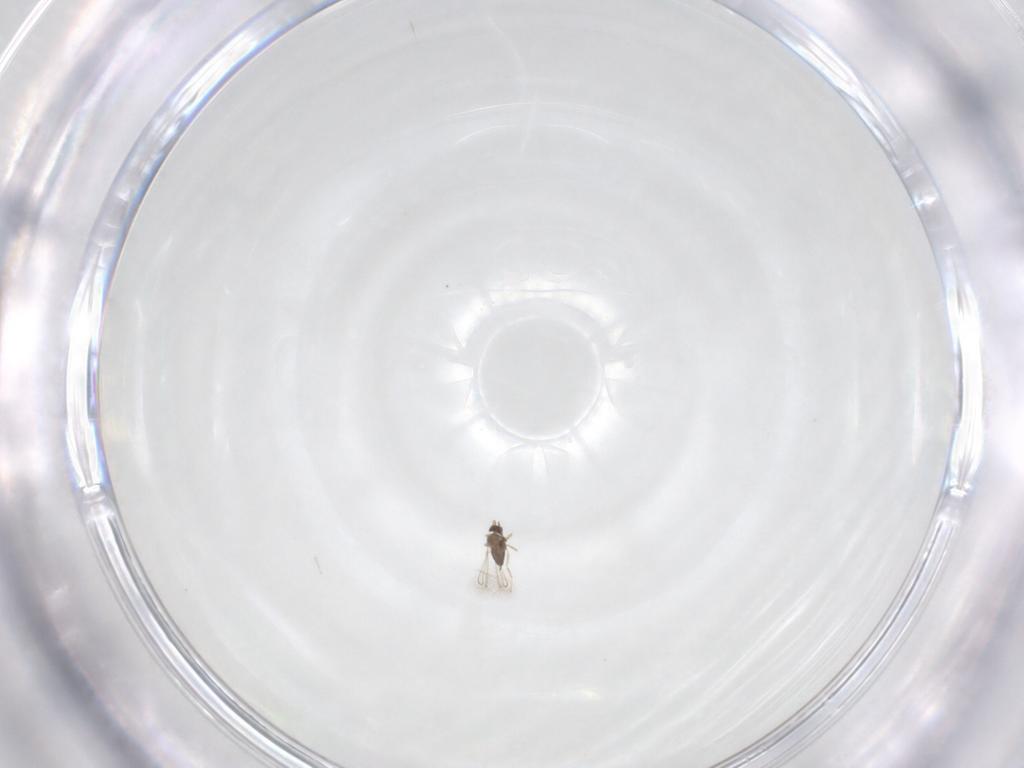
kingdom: Animalia
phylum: Arthropoda
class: Insecta
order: Hymenoptera
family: Mymaridae
